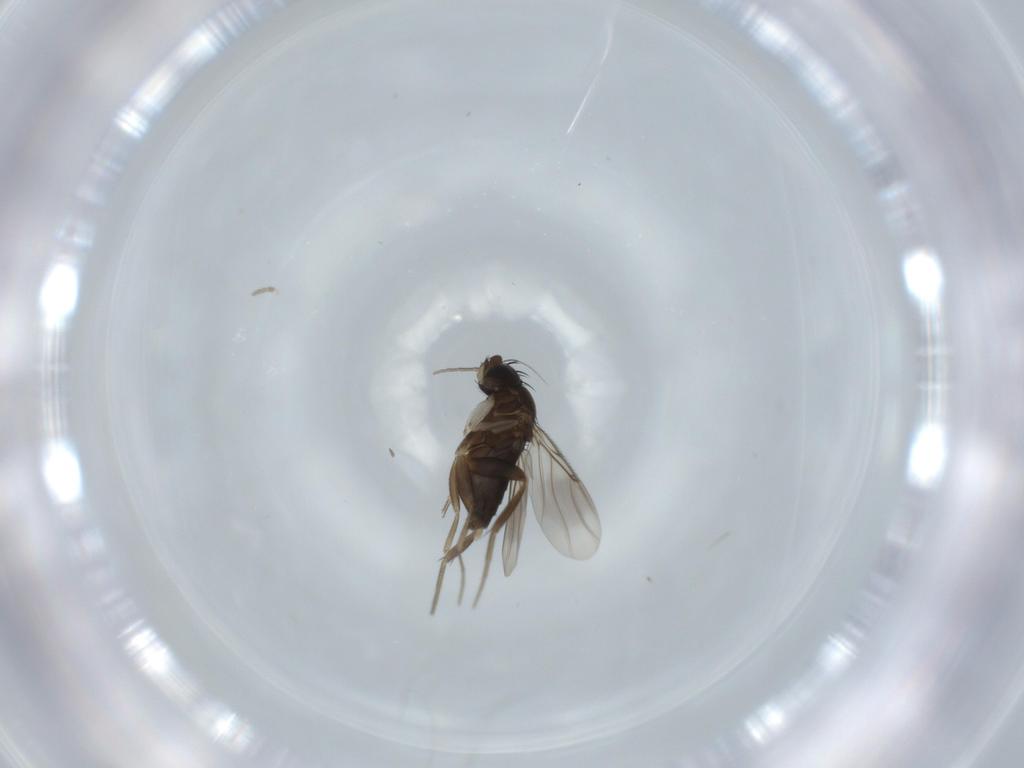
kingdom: Animalia
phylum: Arthropoda
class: Insecta
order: Diptera
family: Phoridae
